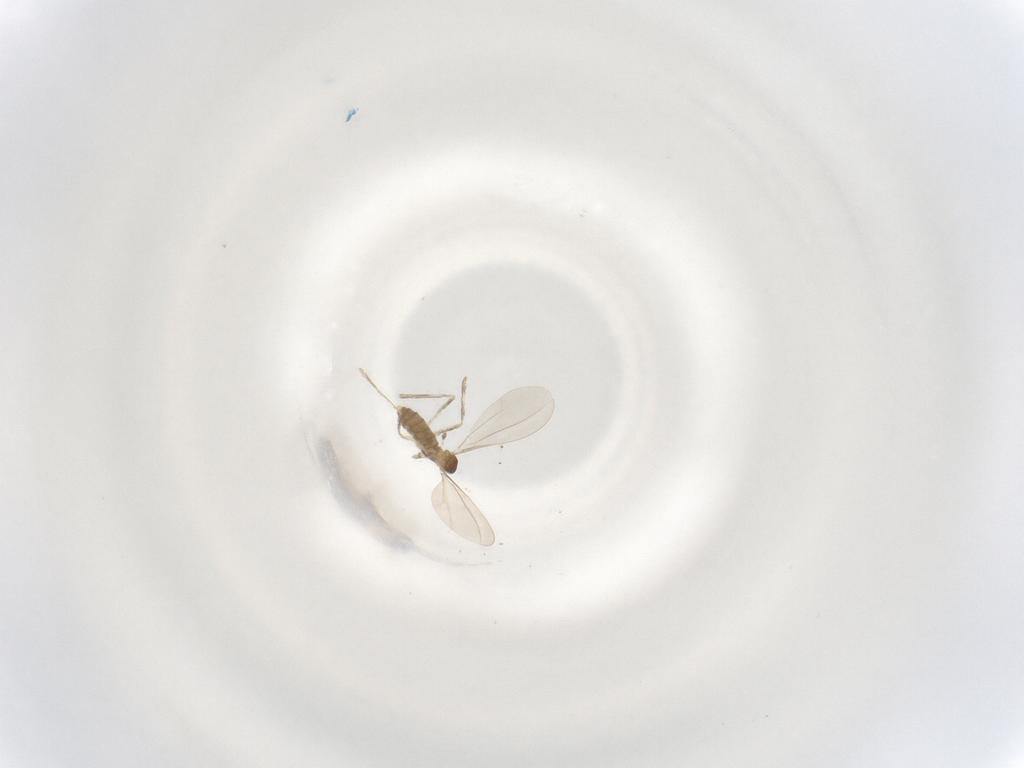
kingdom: Animalia
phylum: Arthropoda
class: Insecta
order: Diptera
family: Cecidomyiidae
